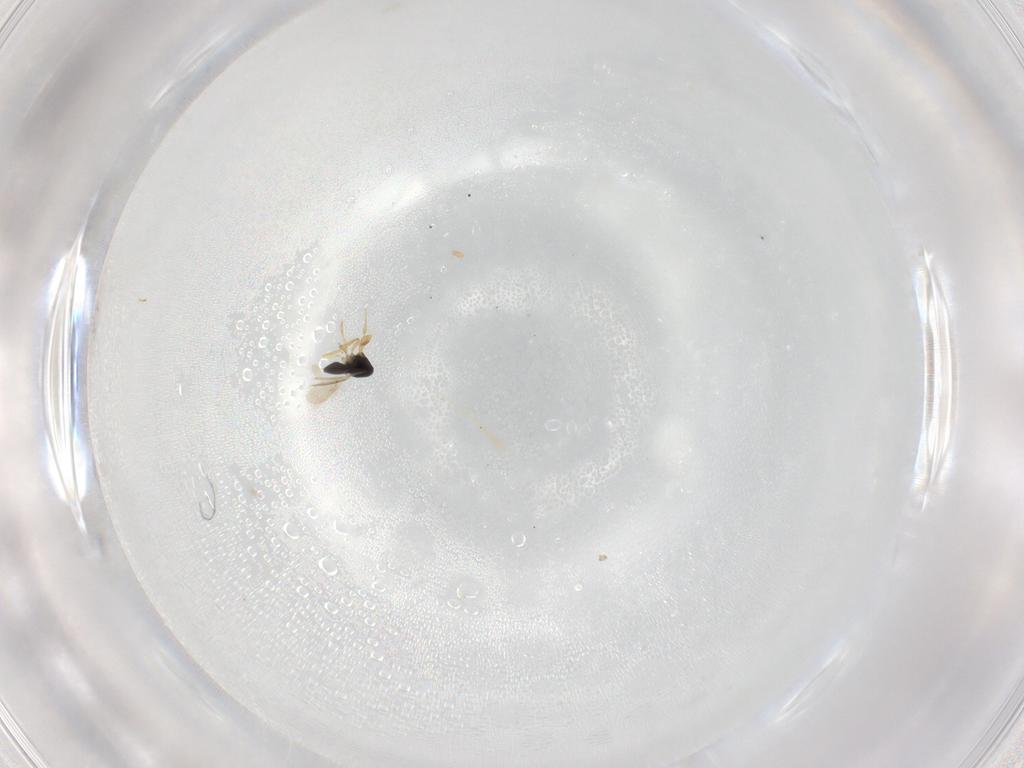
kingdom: Animalia
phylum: Arthropoda
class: Insecta
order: Hymenoptera
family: Scelionidae
